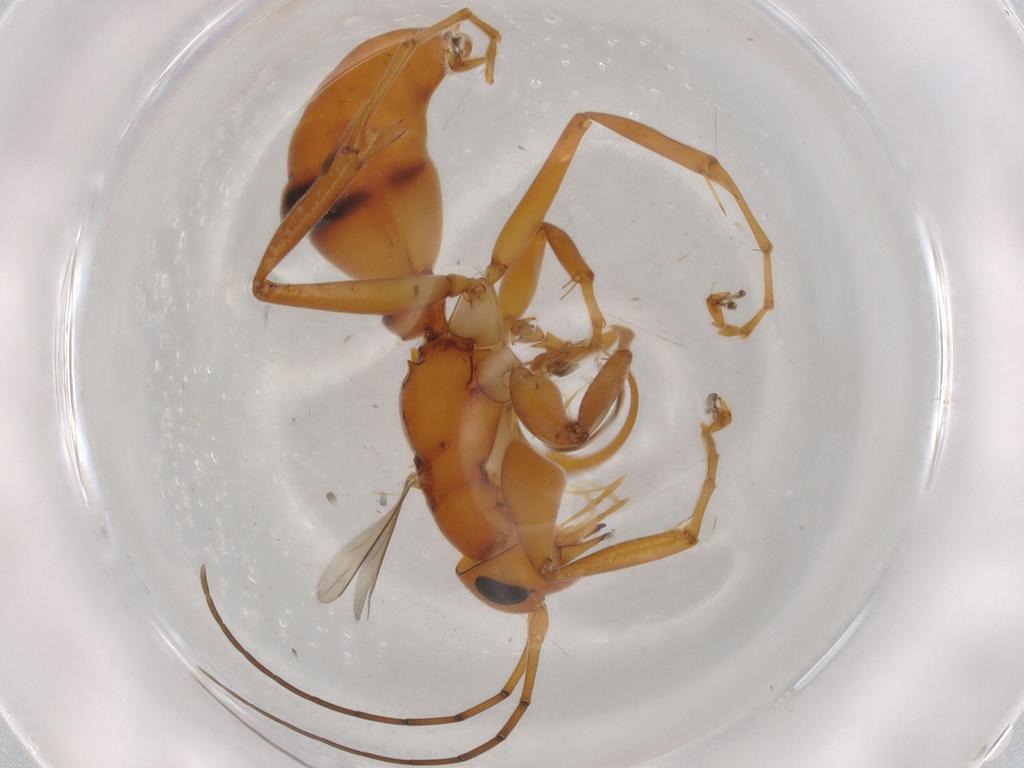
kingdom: Animalia
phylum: Arthropoda
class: Insecta
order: Hymenoptera
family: Rhopalosomatidae
